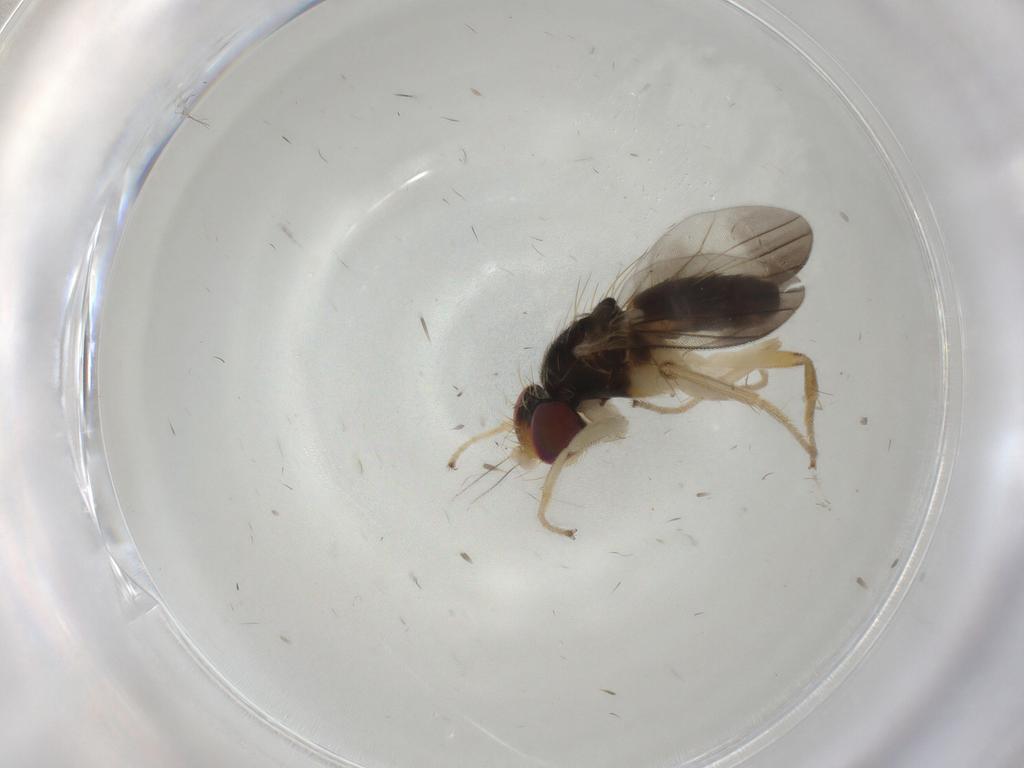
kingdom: Animalia
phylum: Arthropoda
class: Insecta
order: Diptera
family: Clusiidae
